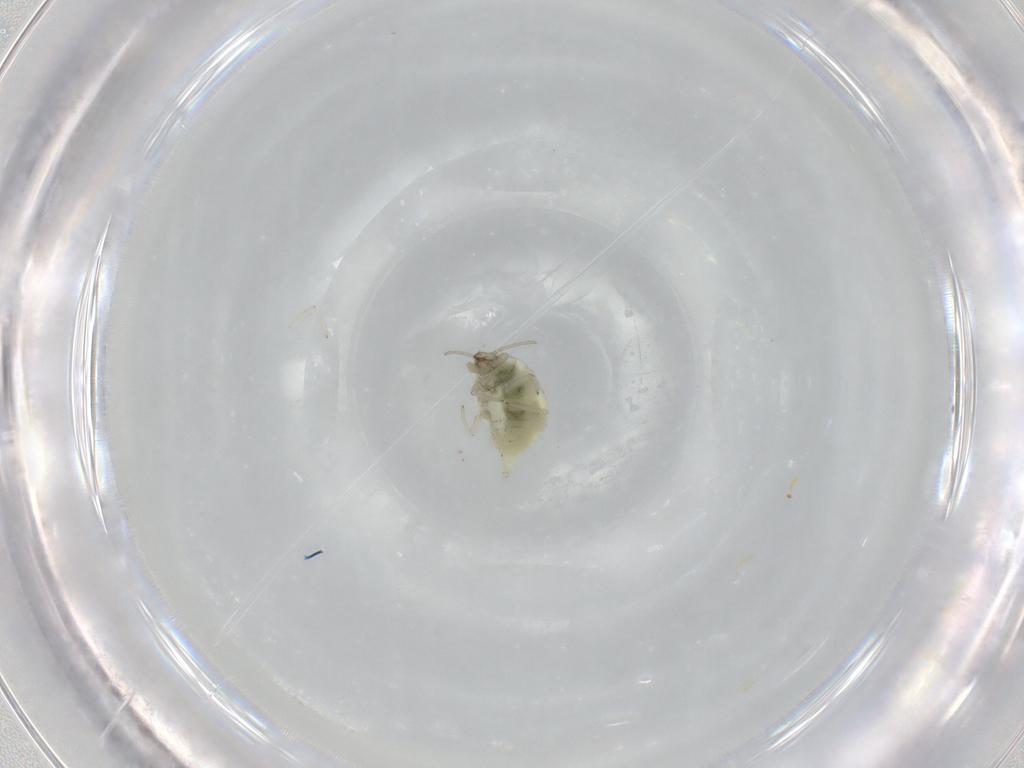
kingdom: Animalia
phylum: Arthropoda
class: Insecta
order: Neuroptera
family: Coniopterygidae
